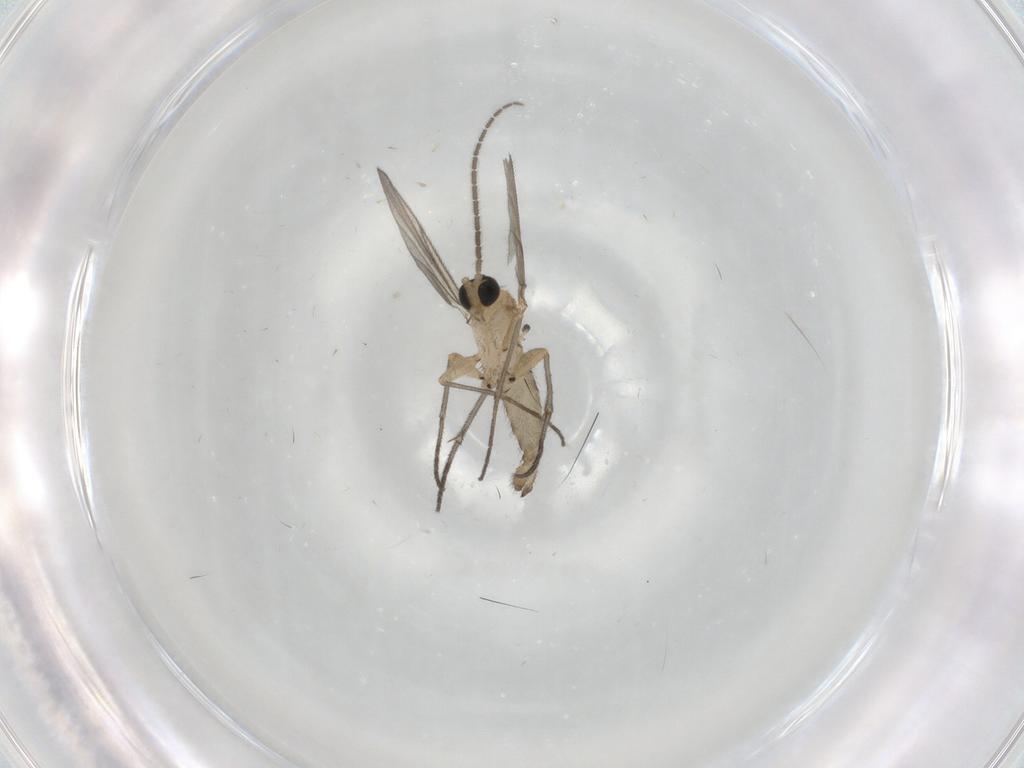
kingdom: Animalia
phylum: Arthropoda
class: Insecta
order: Diptera
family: Sciaridae
